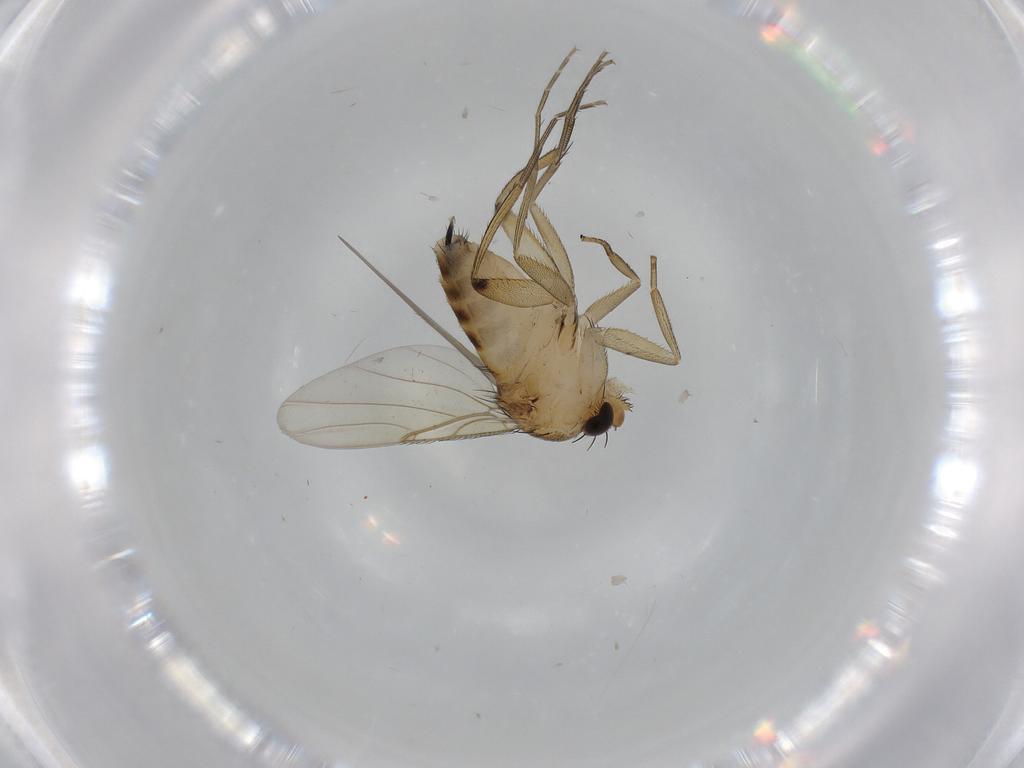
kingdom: Animalia
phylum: Arthropoda
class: Insecta
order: Diptera
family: Phoridae
